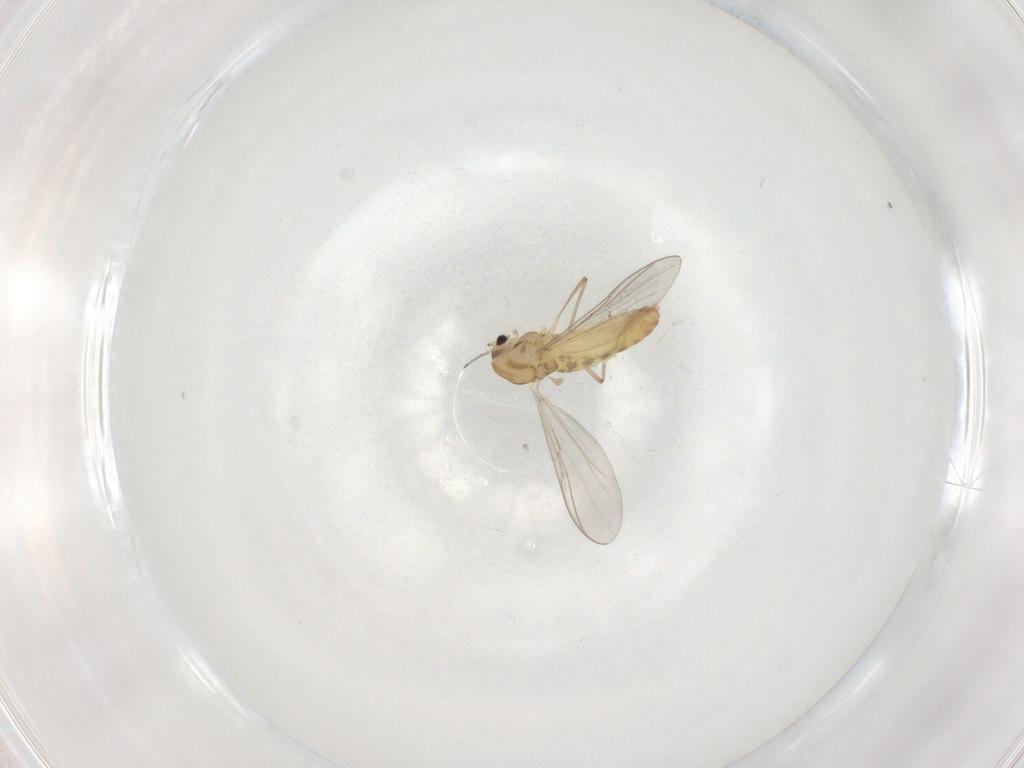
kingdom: Animalia
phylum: Arthropoda
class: Insecta
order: Diptera
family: Chironomidae
